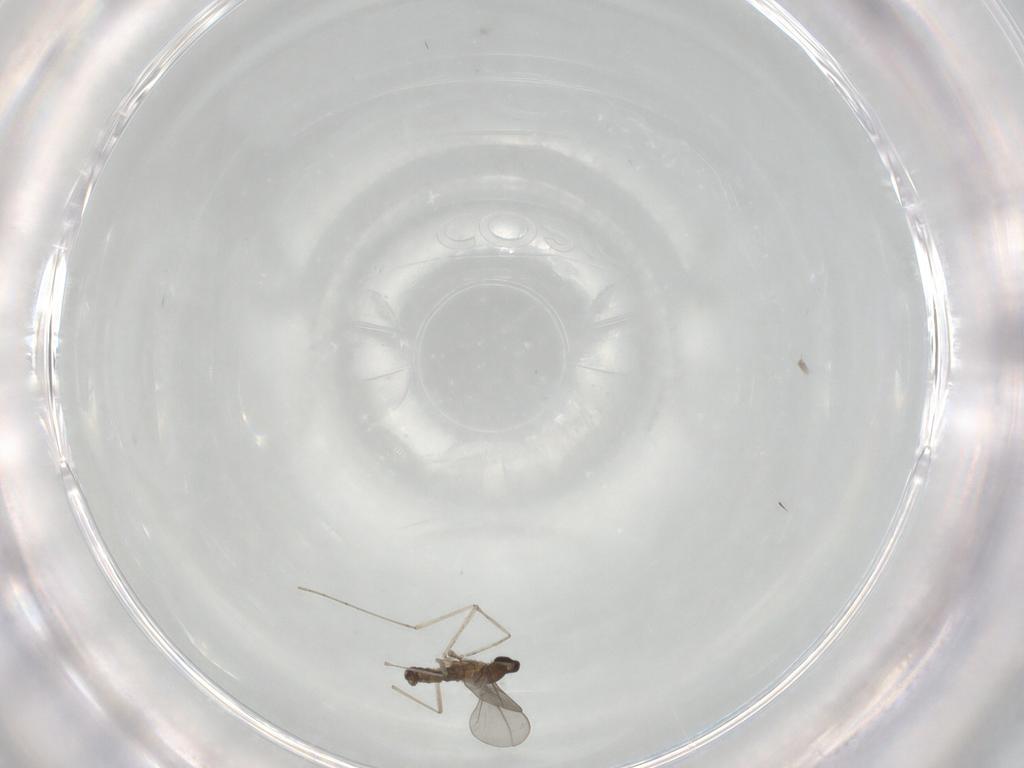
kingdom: Animalia
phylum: Arthropoda
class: Insecta
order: Diptera
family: Cecidomyiidae
